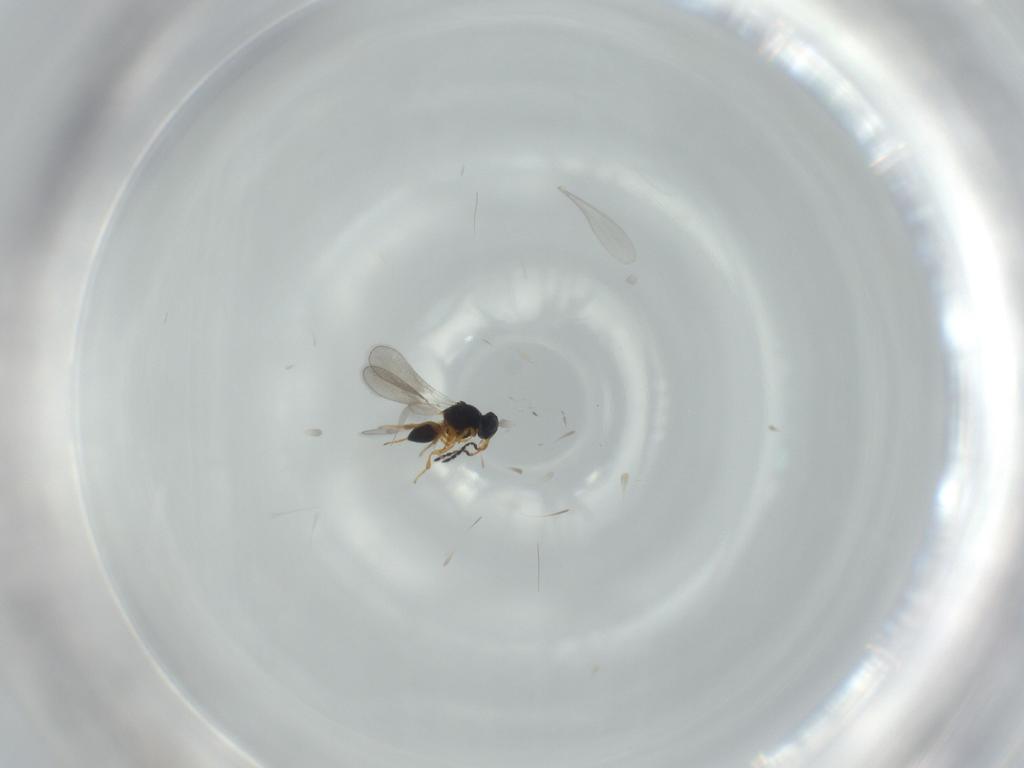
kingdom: Animalia
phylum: Arthropoda
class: Insecta
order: Hymenoptera
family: Platygastridae
